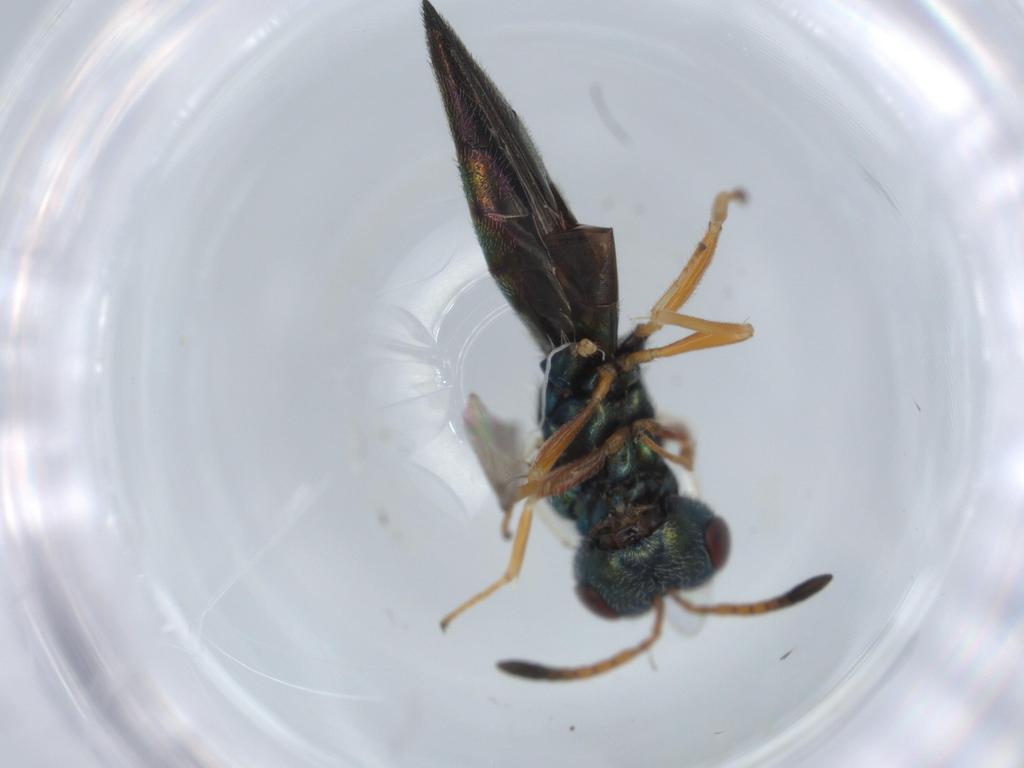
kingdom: Animalia
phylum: Arthropoda
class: Insecta
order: Hymenoptera
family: Pteromalidae
